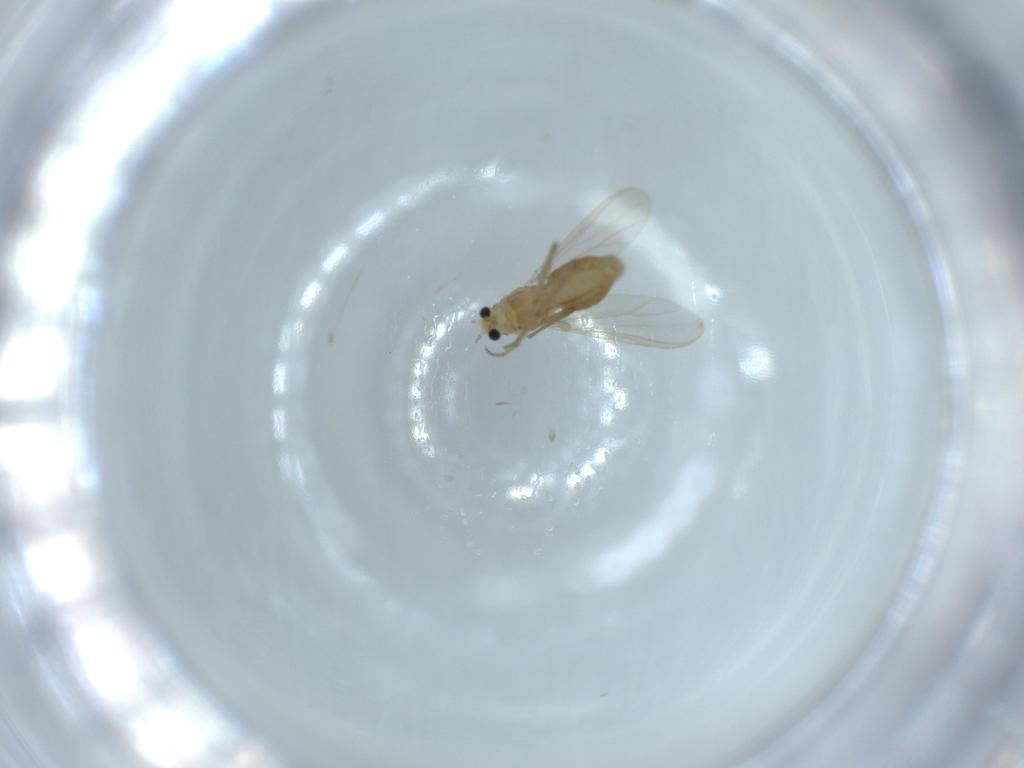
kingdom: Animalia
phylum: Arthropoda
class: Insecta
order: Diptera
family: Chironomidae
